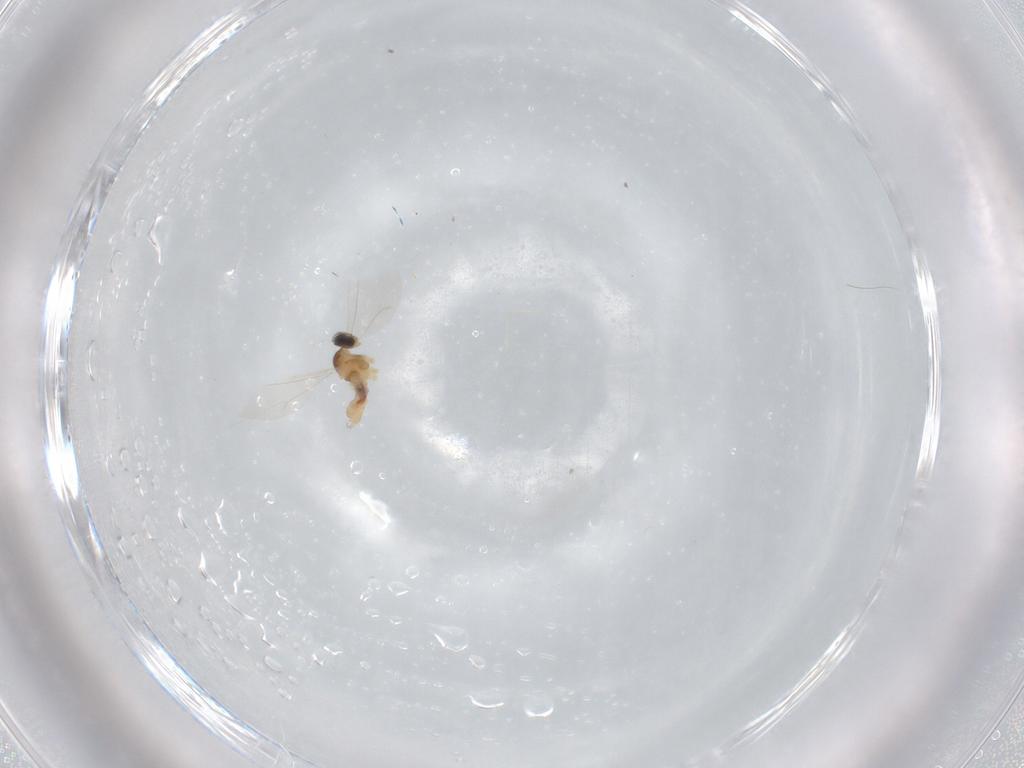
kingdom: Animalia
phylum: Arthropoda
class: Insecta
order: Diptera
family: Cecidomyiidae
